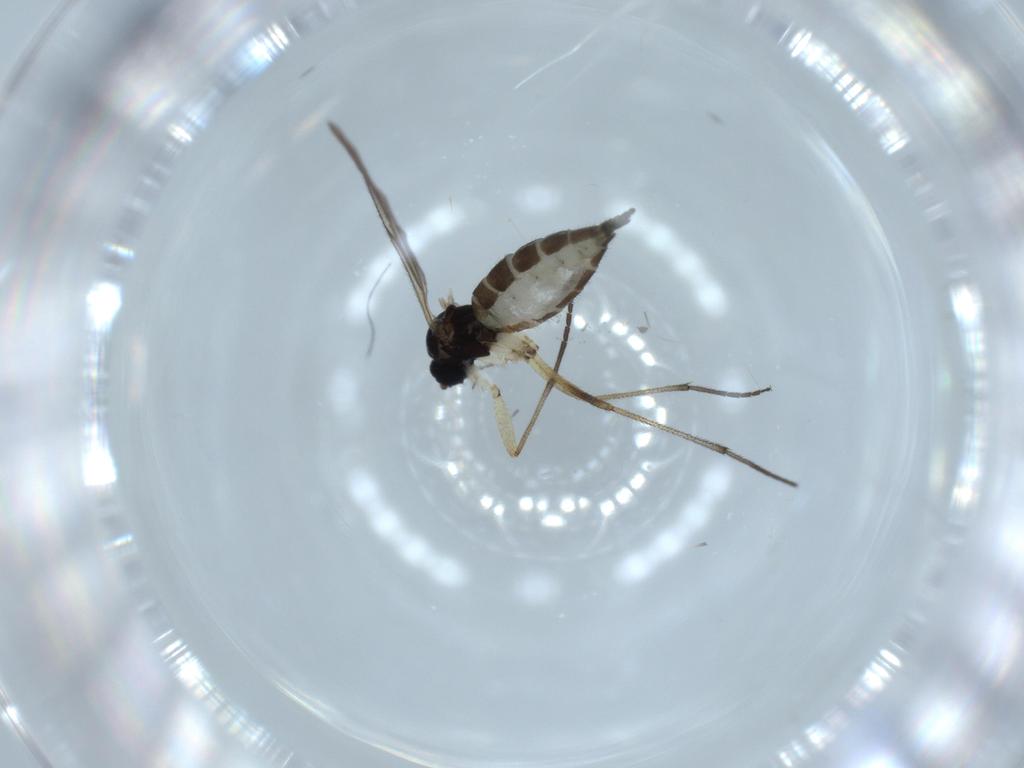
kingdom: Animalia
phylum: Arthropoda
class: Insecta
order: Diptera
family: Sciaridae
